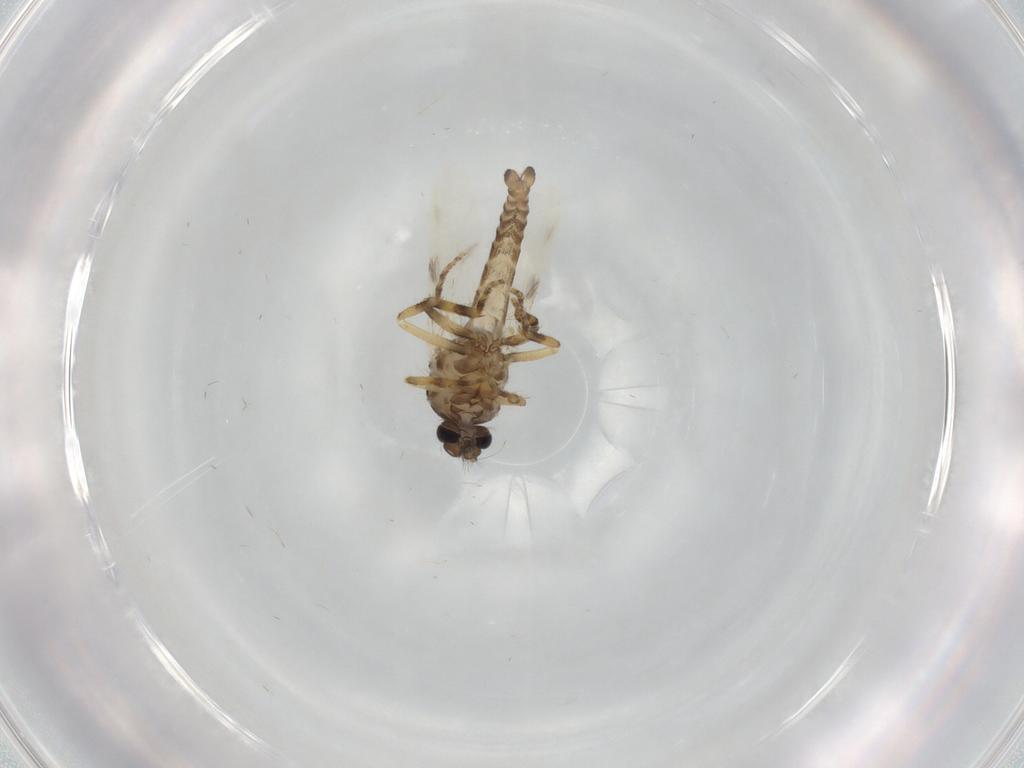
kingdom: Animalia
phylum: Arthropoda
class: Insecta
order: Diptera
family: Ceratopogonidae
